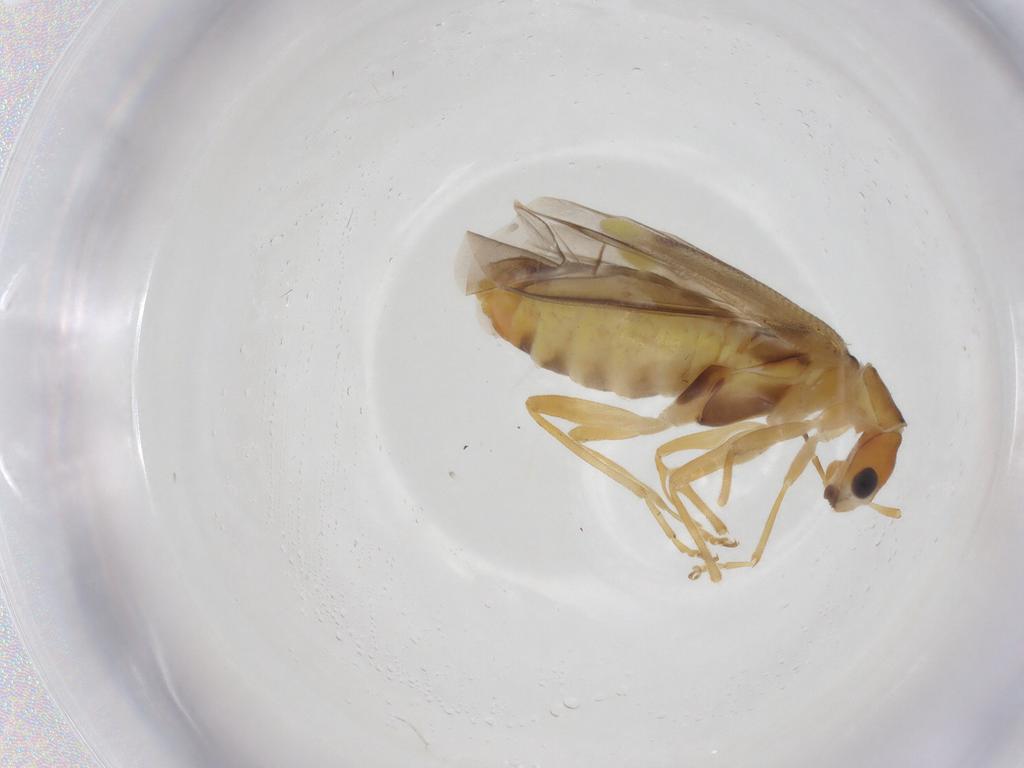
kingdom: Animalia
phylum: Arthropoda
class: Insecta
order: Coleoptera
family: Cantharidae
